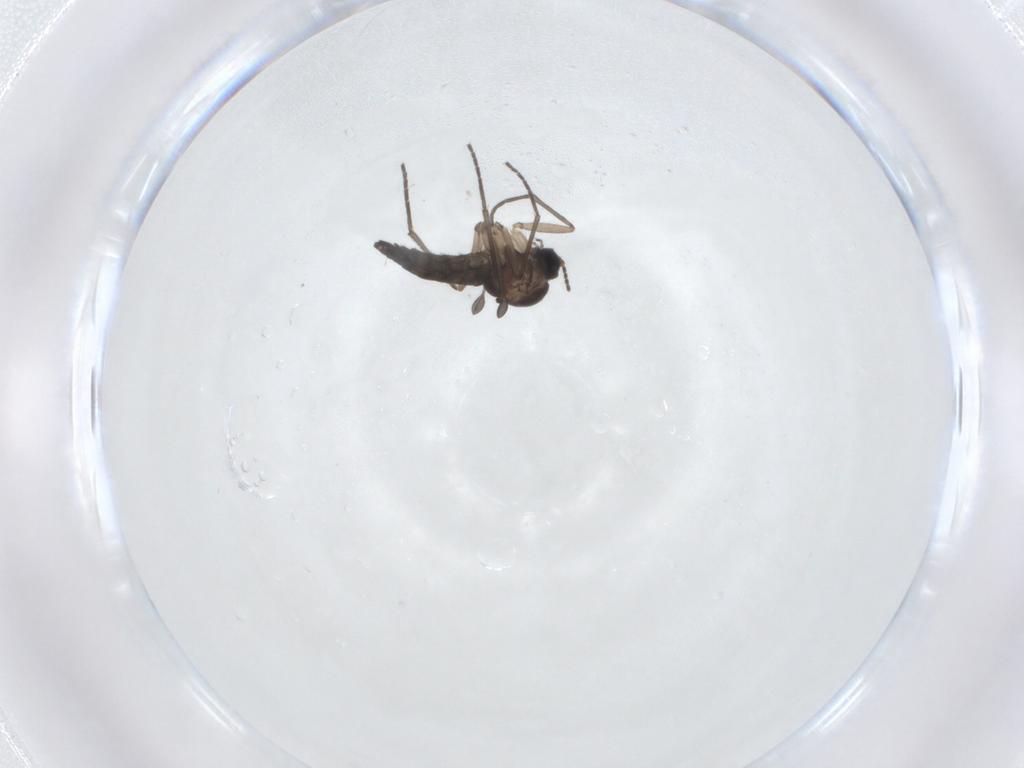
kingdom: Animalia
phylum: Arthropoda
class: Insecta
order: Diptera
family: Sciaridae
